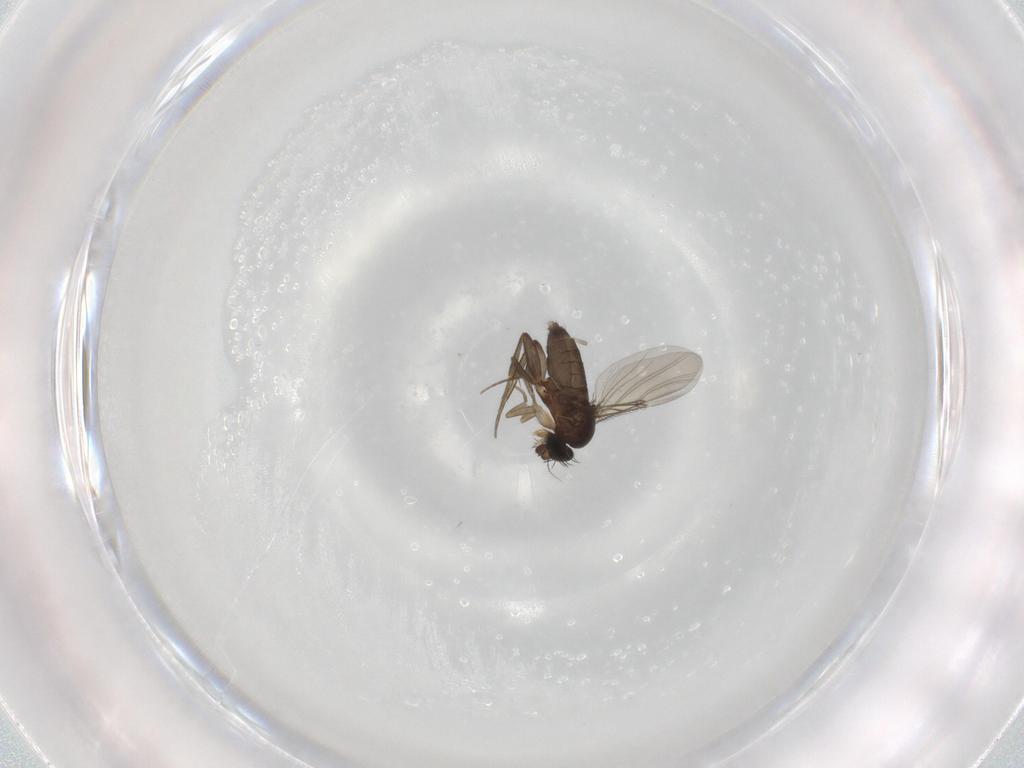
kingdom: Animalia
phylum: Arthropoda
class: Insecta
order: Diptera
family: Phoridae
